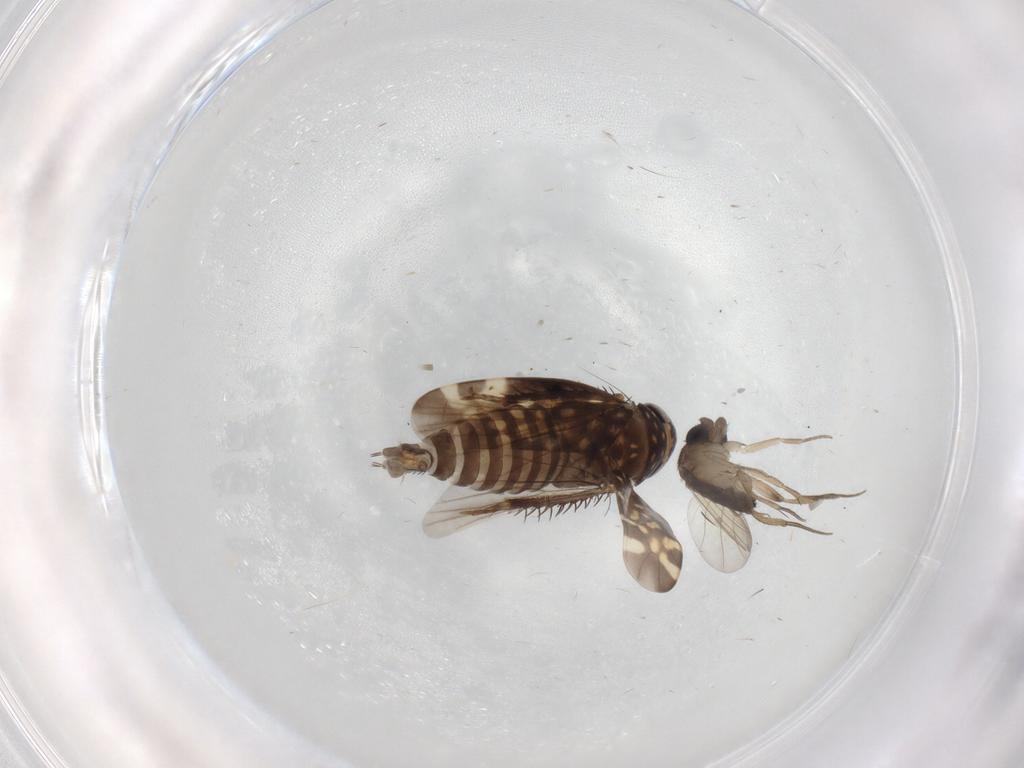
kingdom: Animalia
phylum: Arthropoda
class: Insecta
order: Diptera
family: Phoridae
